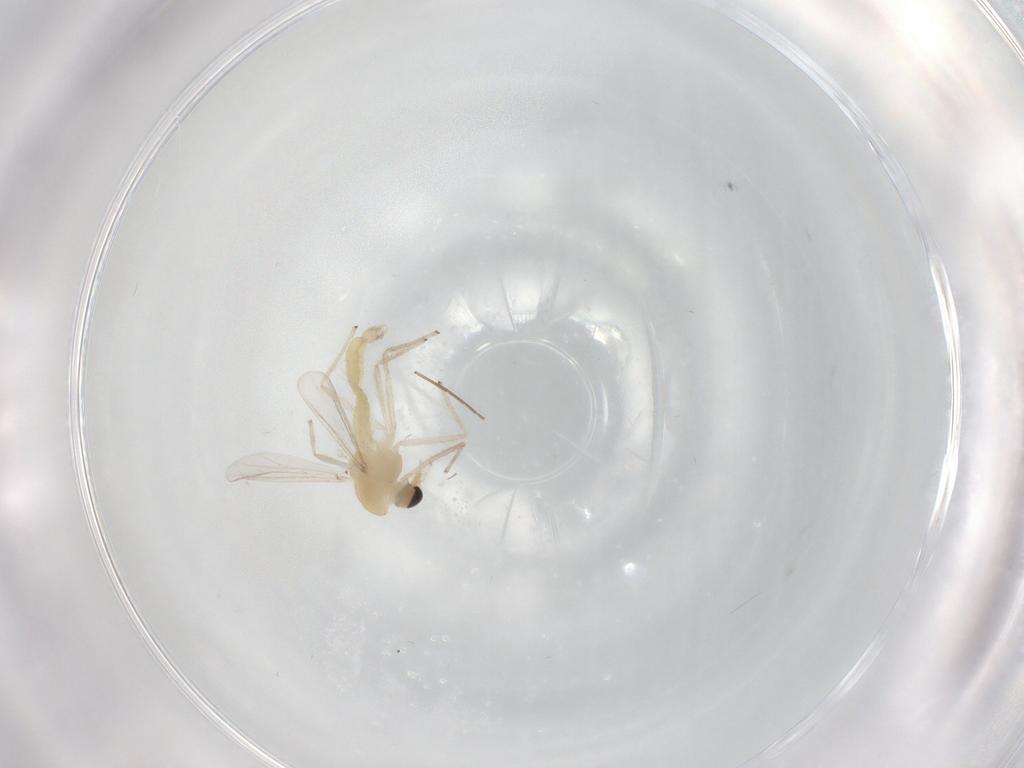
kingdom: Animalia
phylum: Arthropoda
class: Insecta
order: Diptera
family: Chironomidae
